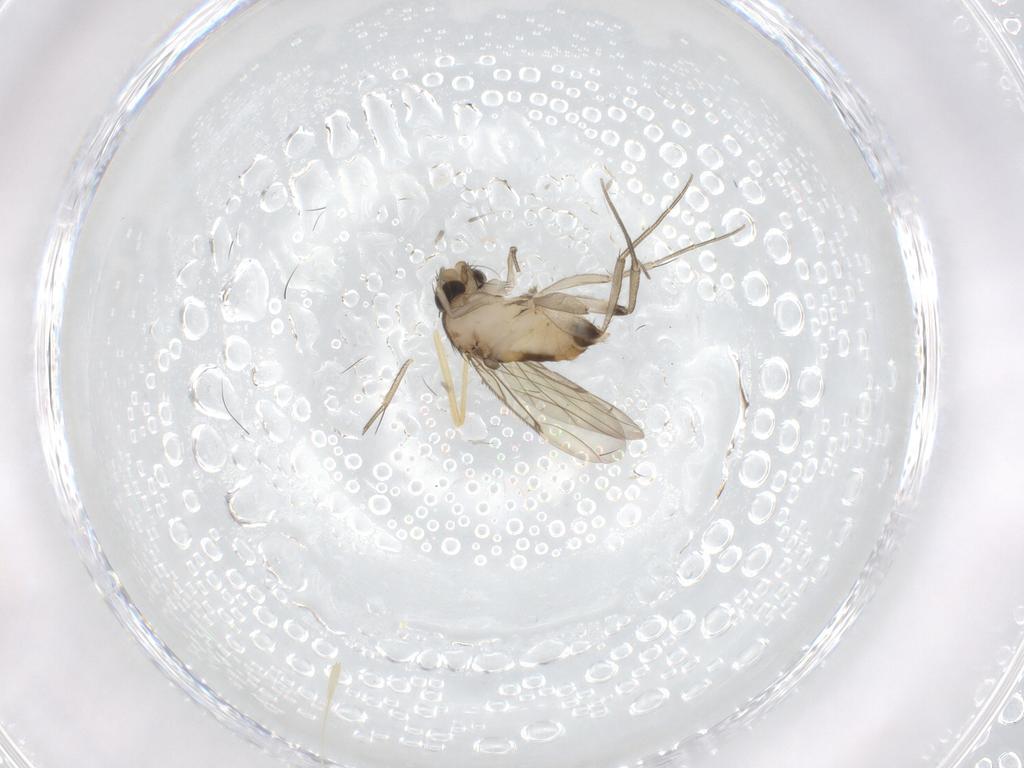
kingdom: Animalia
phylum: Arthropoda
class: Insecta
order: Diptera
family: Chironomidae
